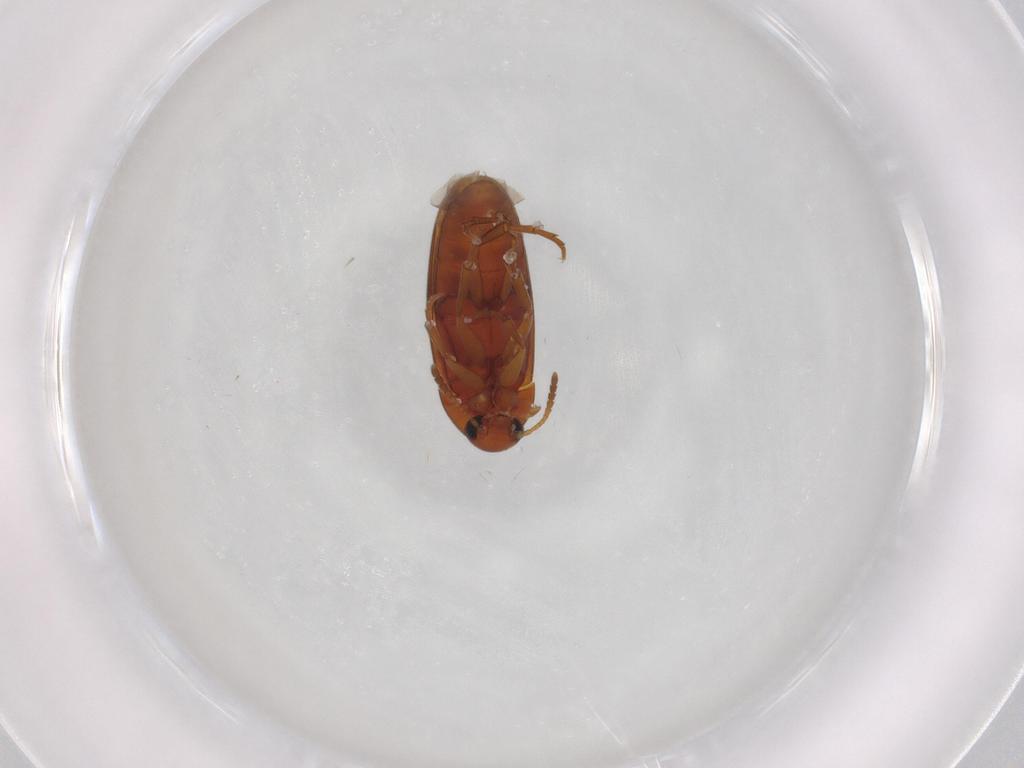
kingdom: Animalia
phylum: Arthropoda
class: Insecta
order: Coleoptera
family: Scraptiidae
